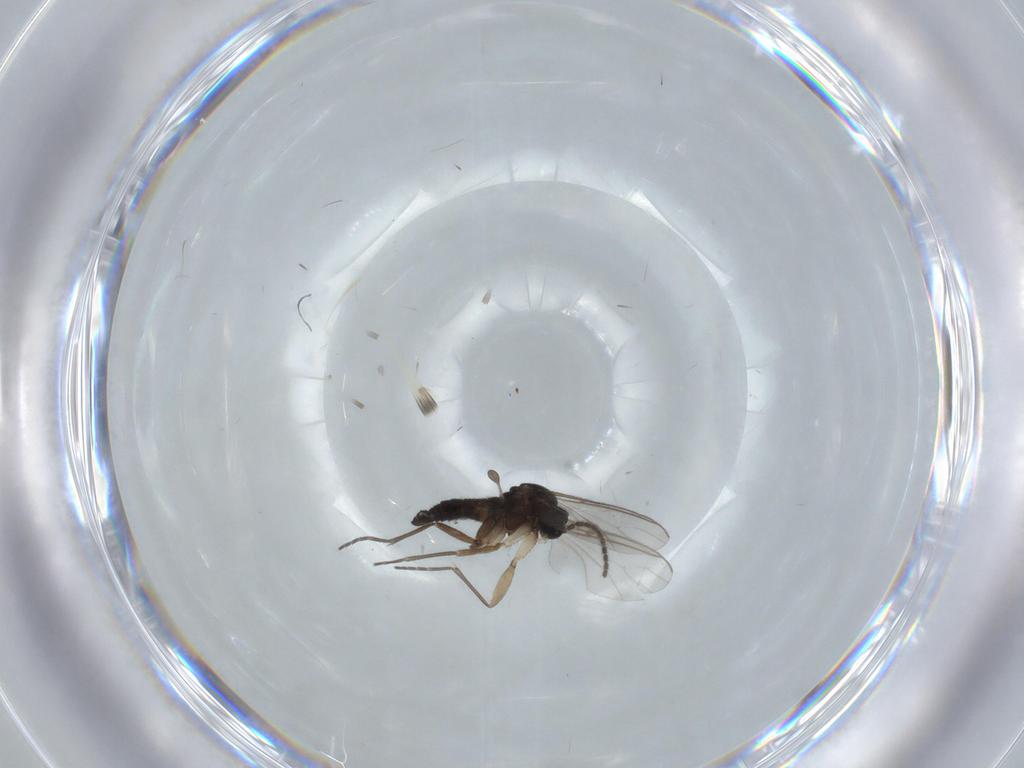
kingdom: Animalia
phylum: Arthropoda
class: Insecta
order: Diptera
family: Sciaridae
